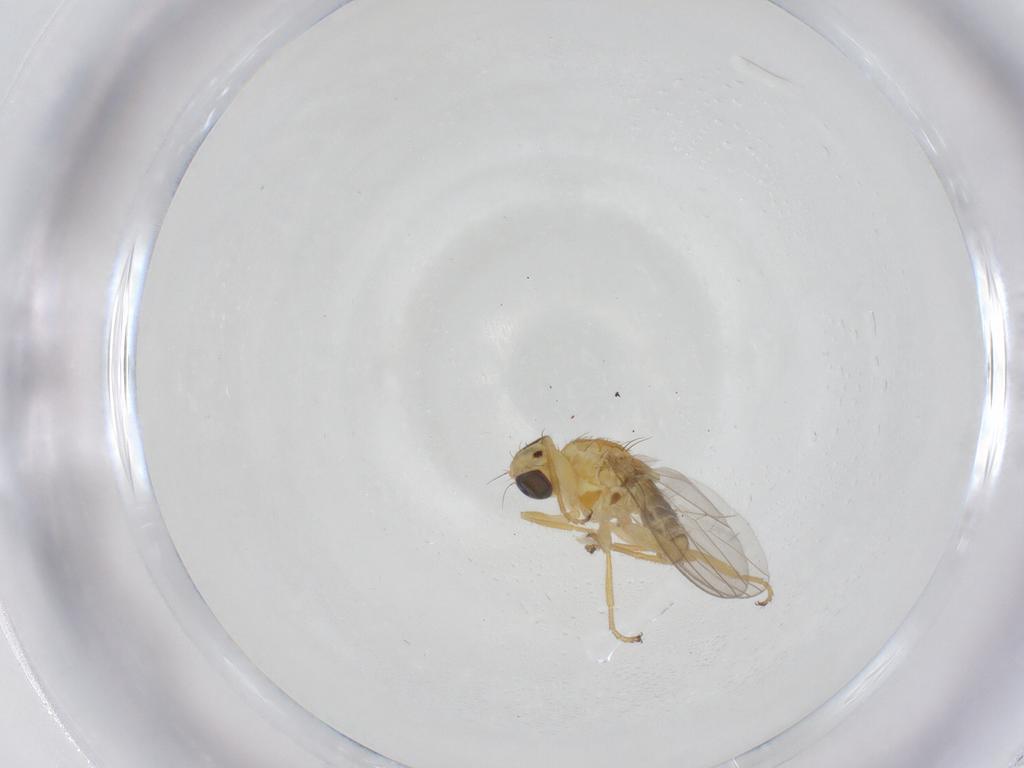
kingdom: Animalia
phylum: Arthropoda
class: Insecta
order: Diptera
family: Chyromyidae
